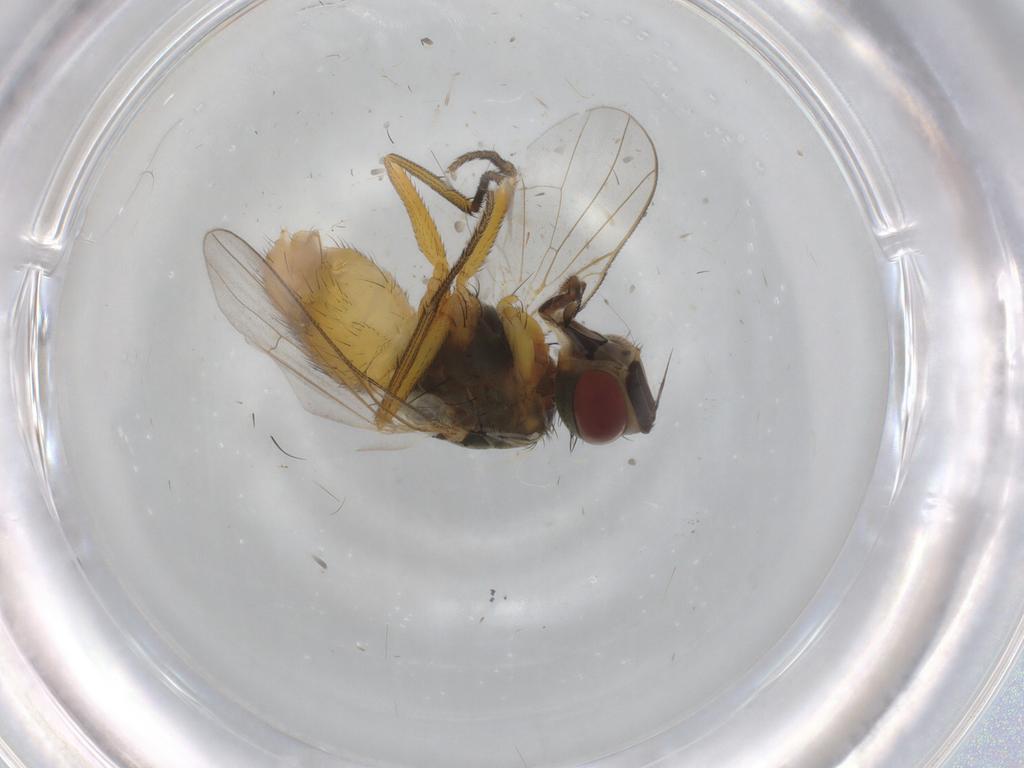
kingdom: Animalia
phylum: Arthropoda
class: Insecta
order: Diptera
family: Muscidae
